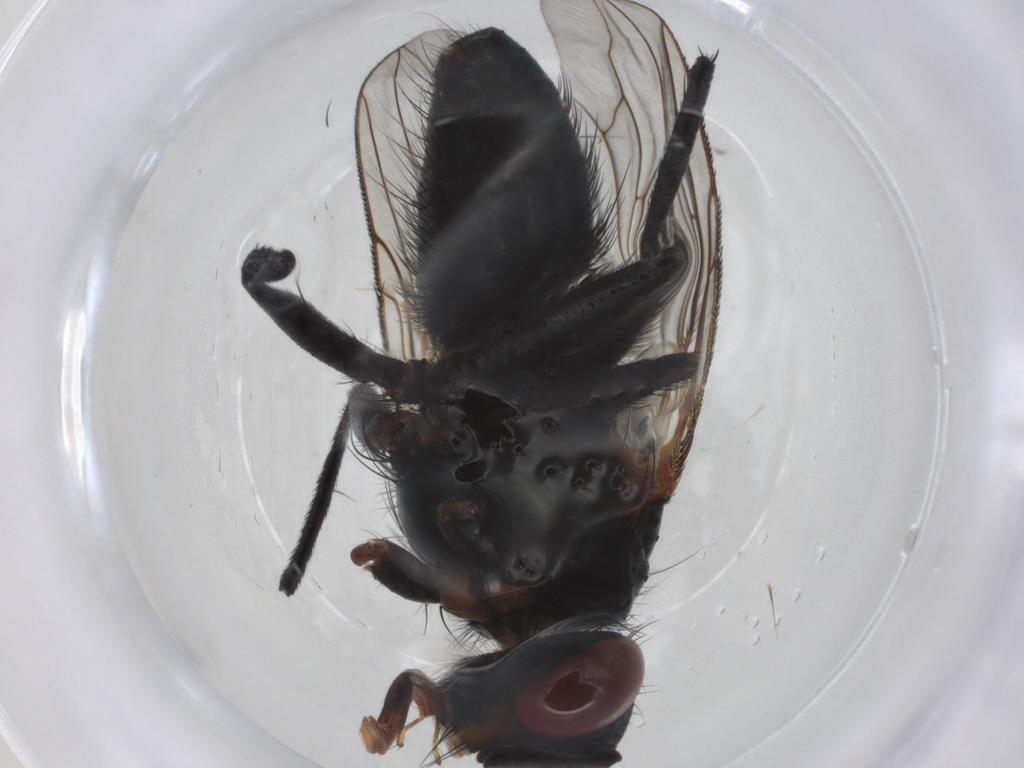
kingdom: Animalia
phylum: Arthropoda
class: Insecta
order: Diptera
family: Tachinidae
